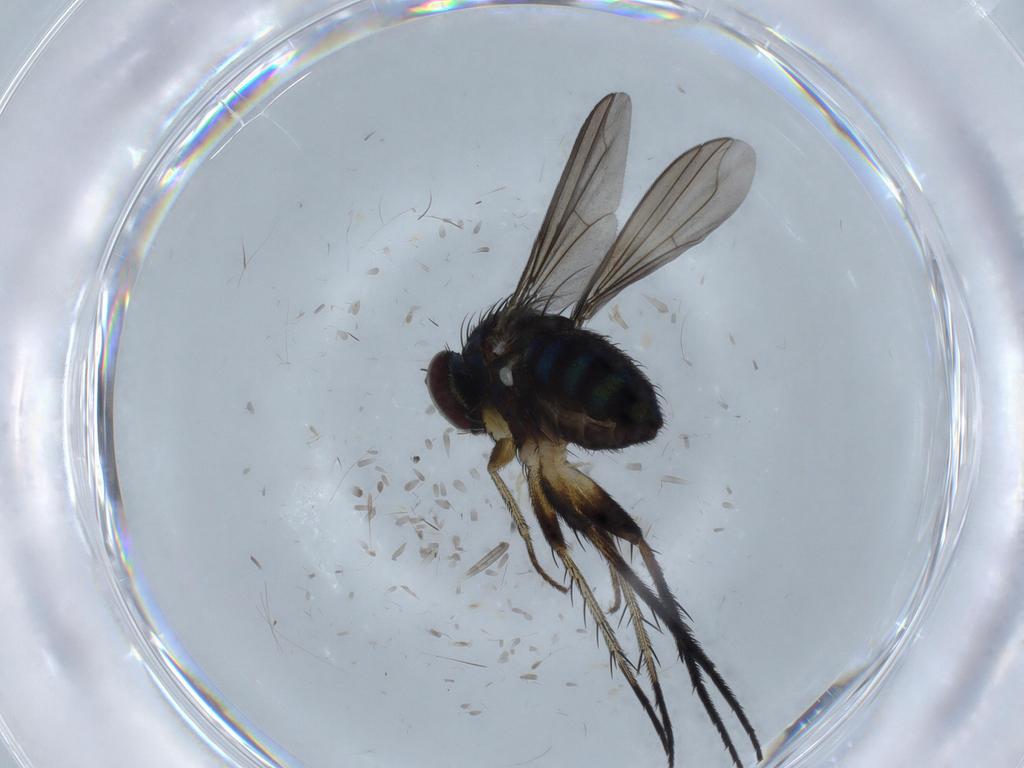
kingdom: Animalia
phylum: Arthropoda
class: Insecta
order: Diptera
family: Dolichopodidae
